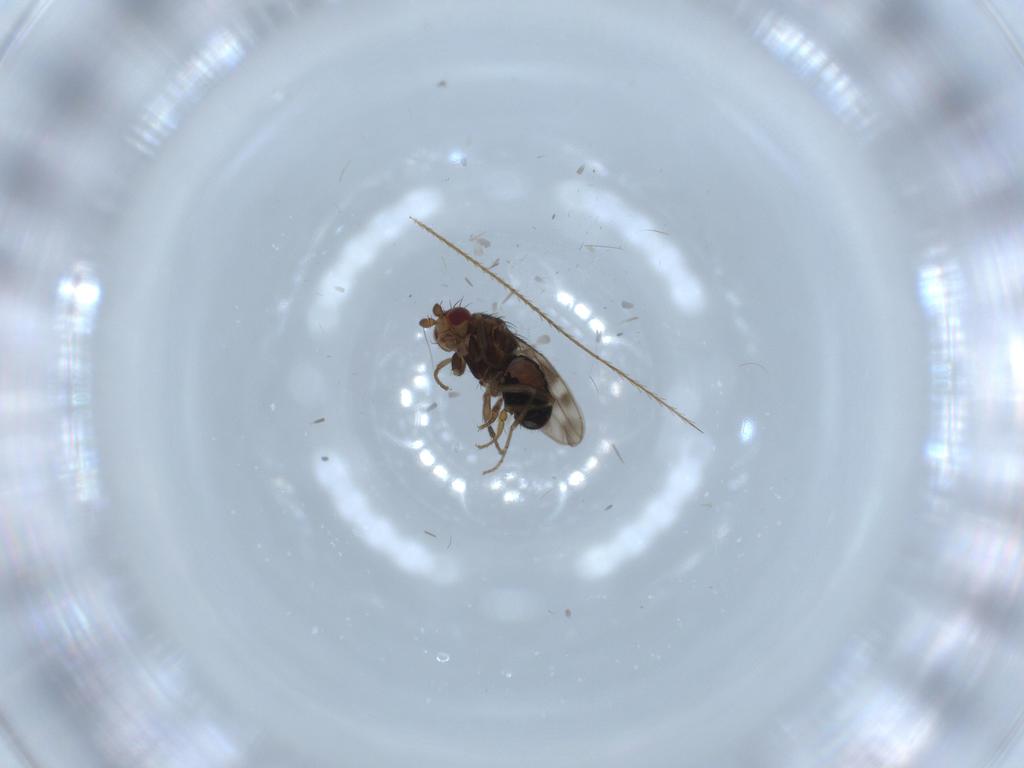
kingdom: Animalia
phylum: Arthropoda
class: Insecta
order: Diptera
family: Sphaeroceridae
